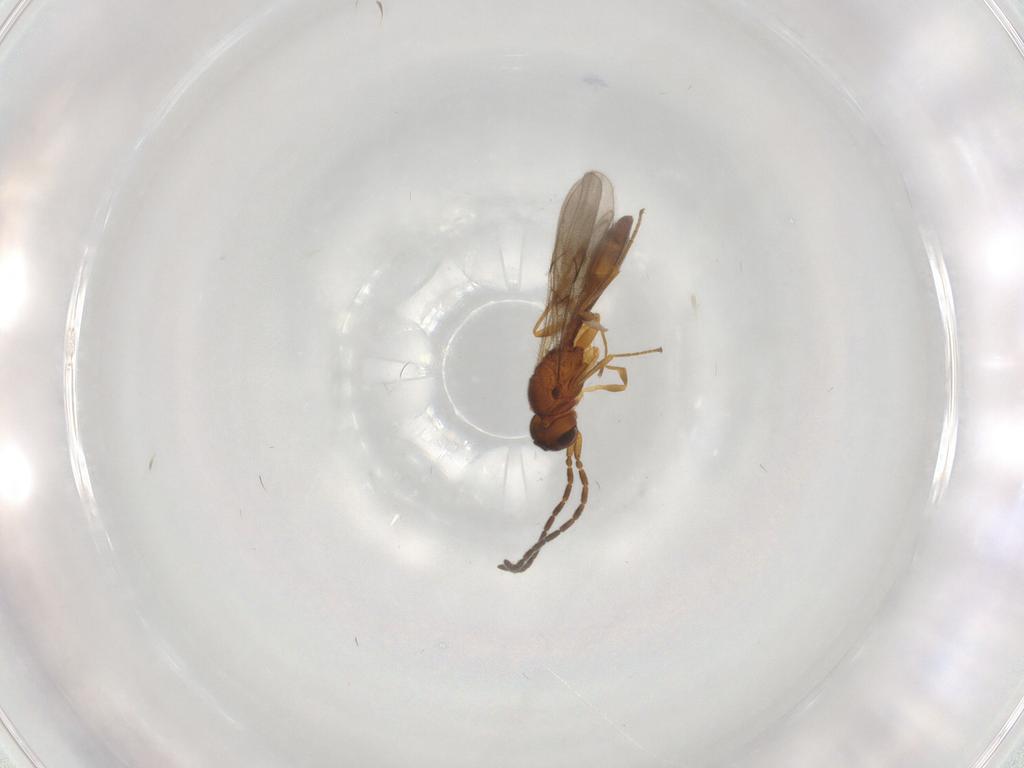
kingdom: Animalia
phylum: Arthropoda
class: Insecta
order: Hymenoptera
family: Scelionidae
